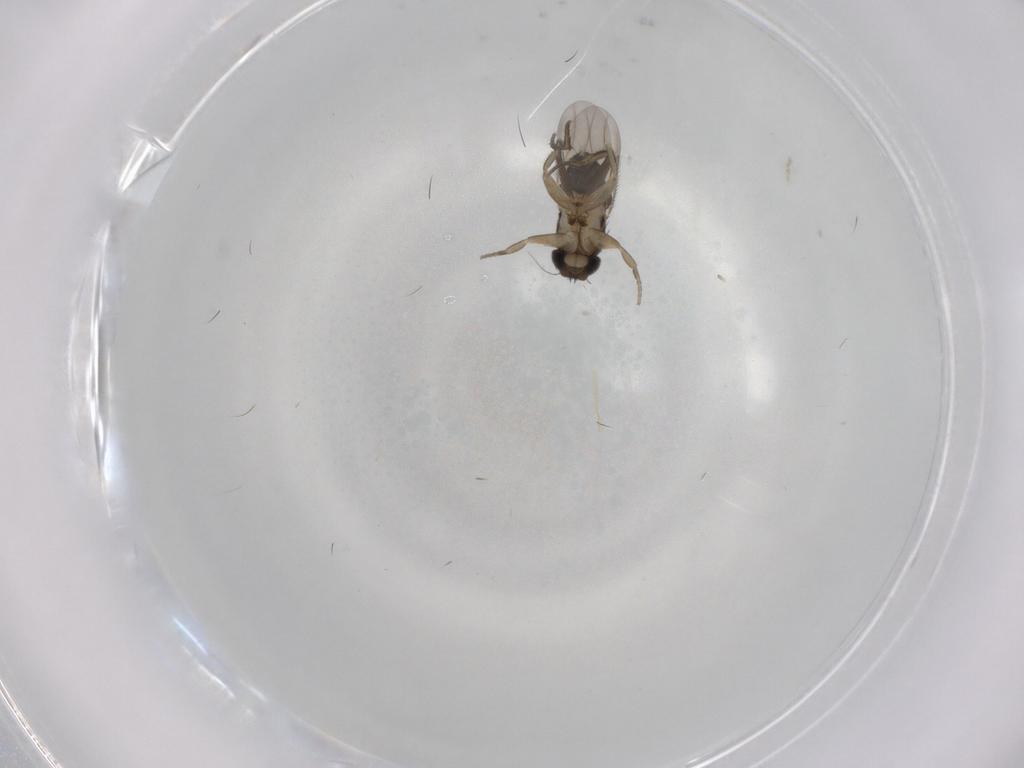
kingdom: Animalia
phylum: Arthropoda
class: Insecta
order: Diptera
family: Phoridae
